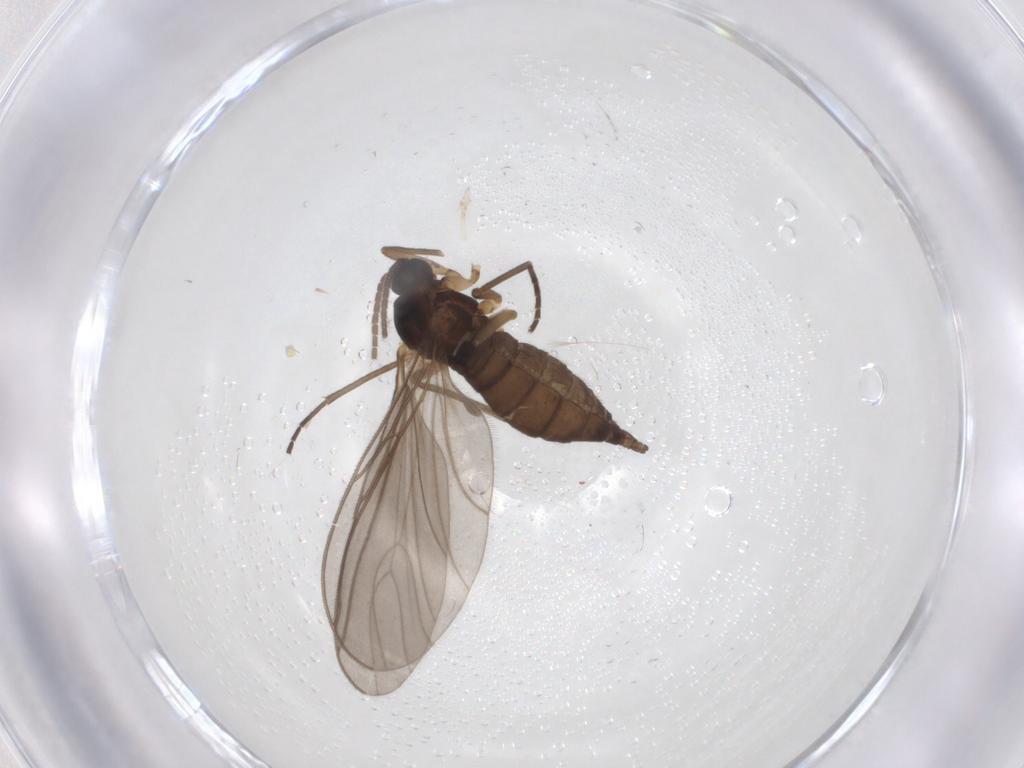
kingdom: Animalia
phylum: Arthropoda
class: Insecta
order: Diptera
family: Sciaridae
